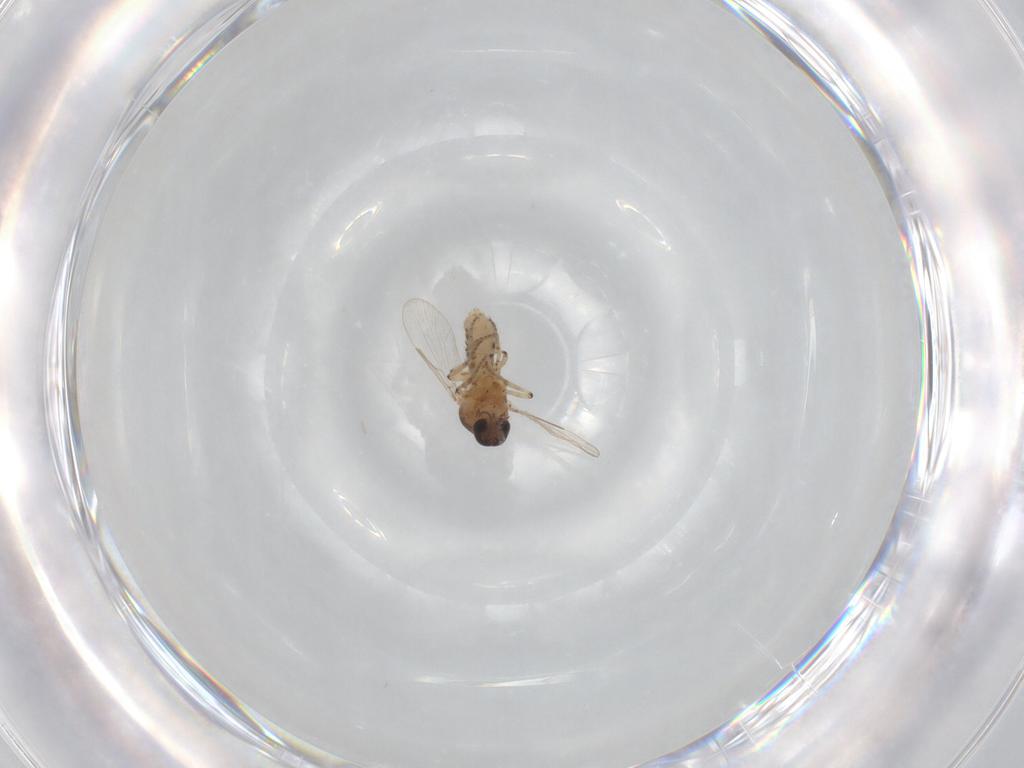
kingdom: Animalia
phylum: Arthropoda
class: Insecta
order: Diptera
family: Ceratopogonidae
